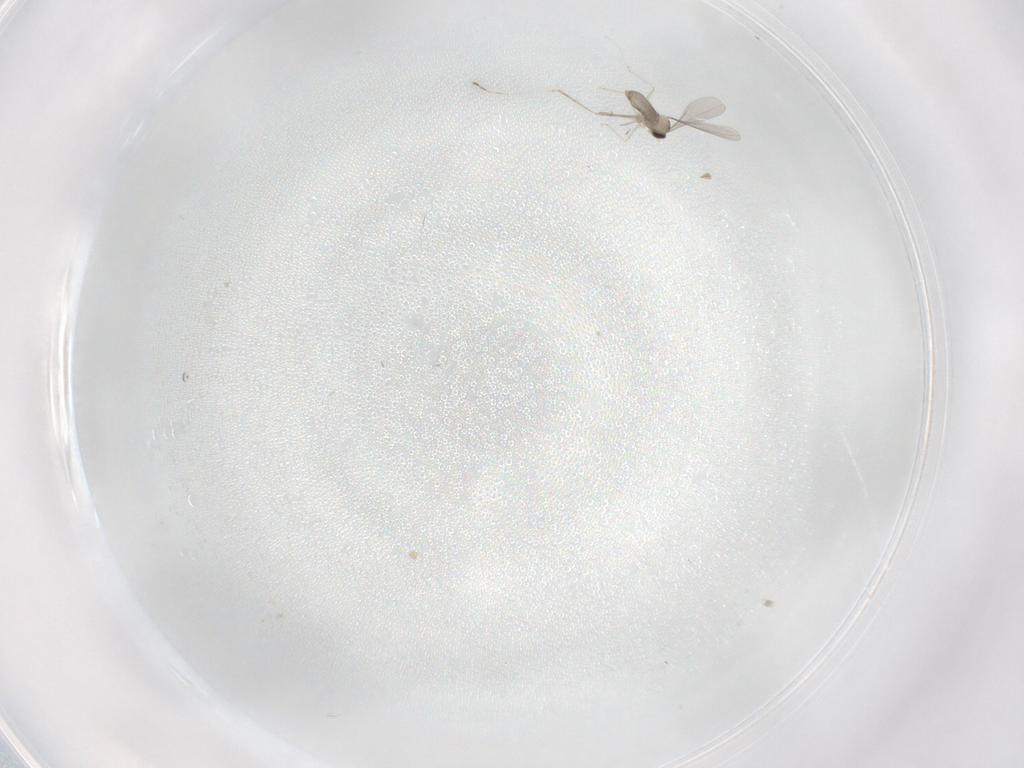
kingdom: Animalia
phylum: Arthropoda
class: Insecta
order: Diptera
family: Cecidomyiidae
